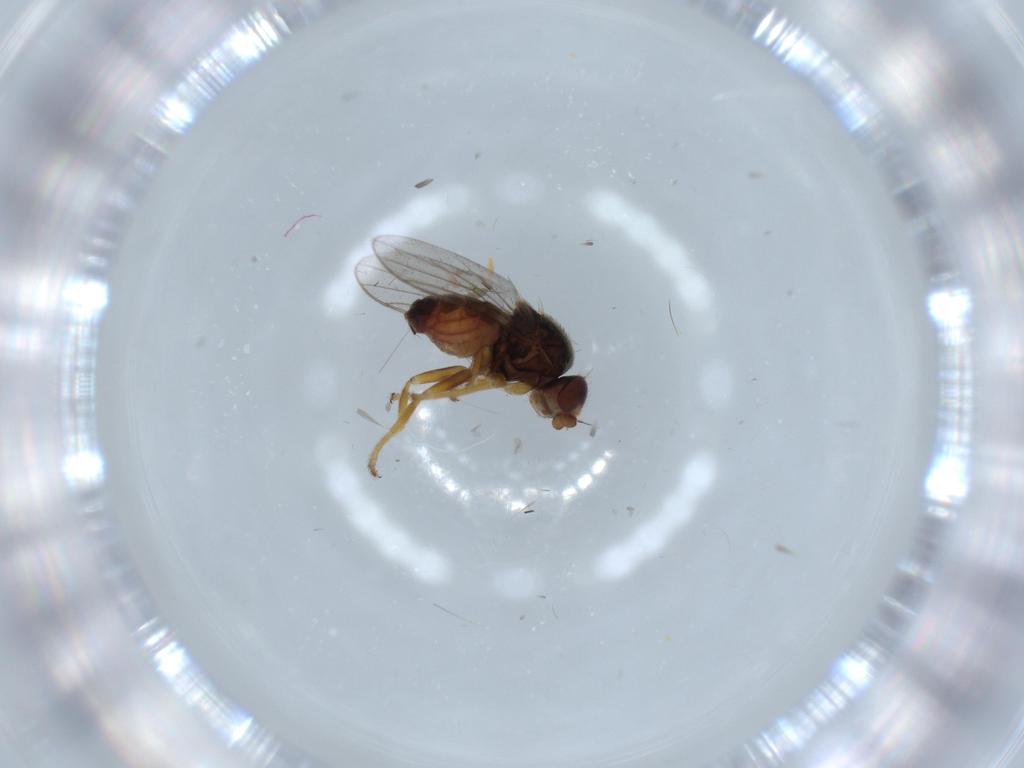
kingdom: Animalia
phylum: Arthropoda
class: Insecta
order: Diptera
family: Chloropidae
